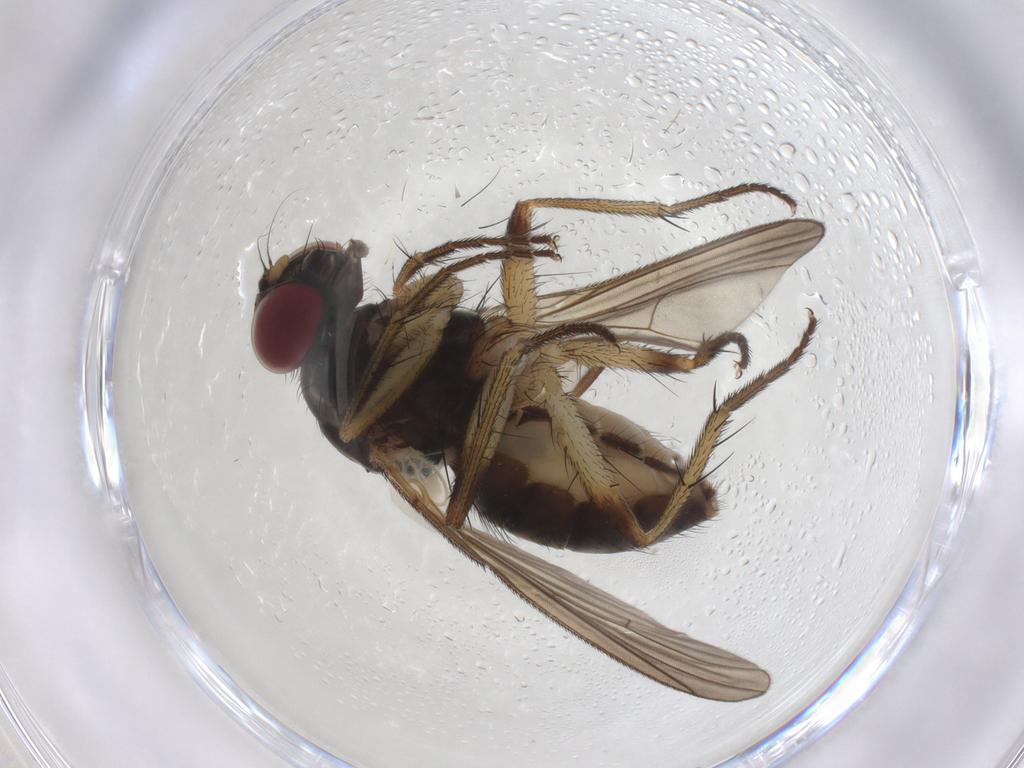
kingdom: Animalia
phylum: Arthropoda
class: Insecta
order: Diptera
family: Muscidae
